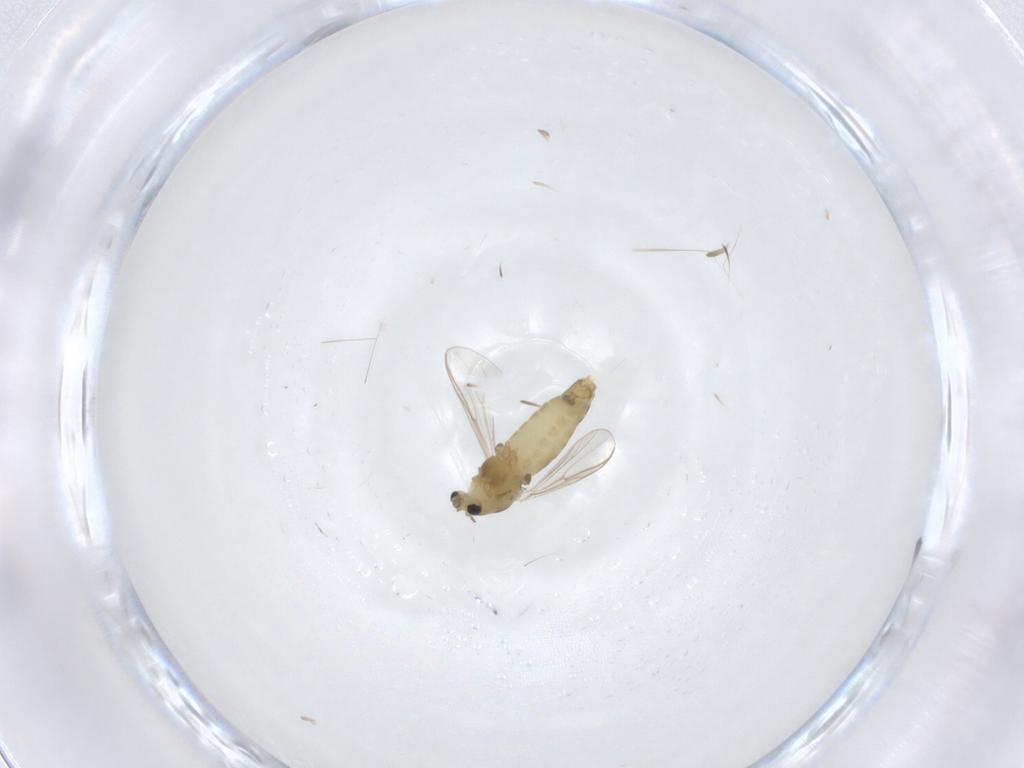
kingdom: Animalia
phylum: Arthropoda
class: Insecta
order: Diptera
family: Chironomidae
